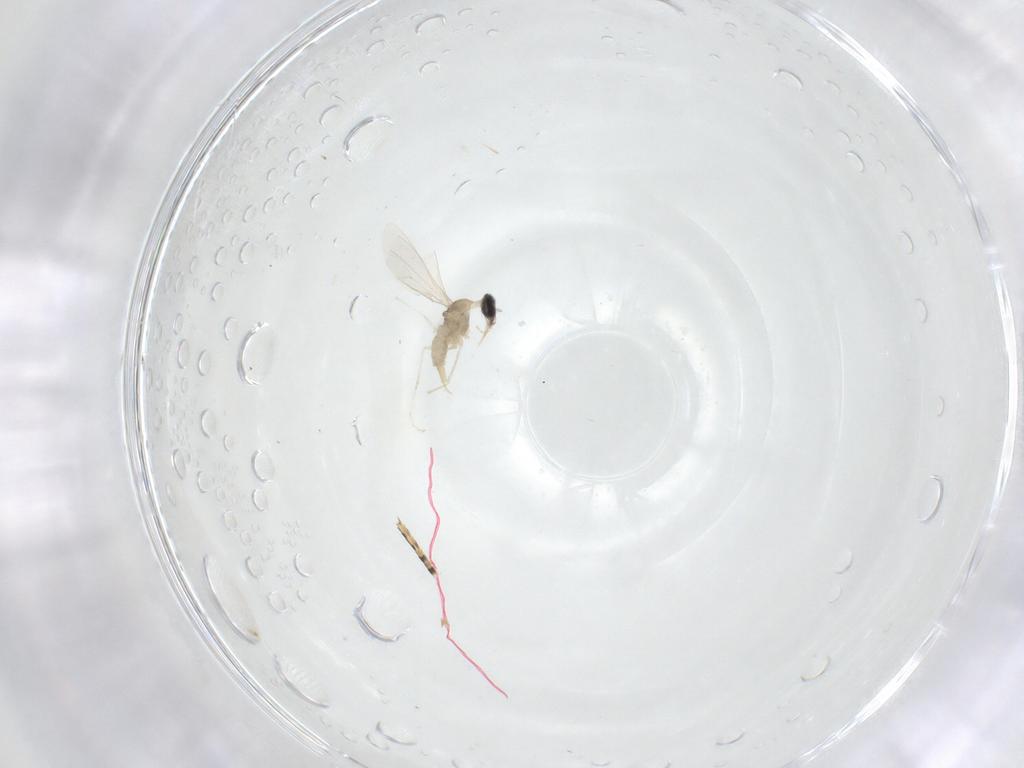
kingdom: Animalia
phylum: Arthropoda
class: Insecta
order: Diptera
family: Cecidomyiidae
